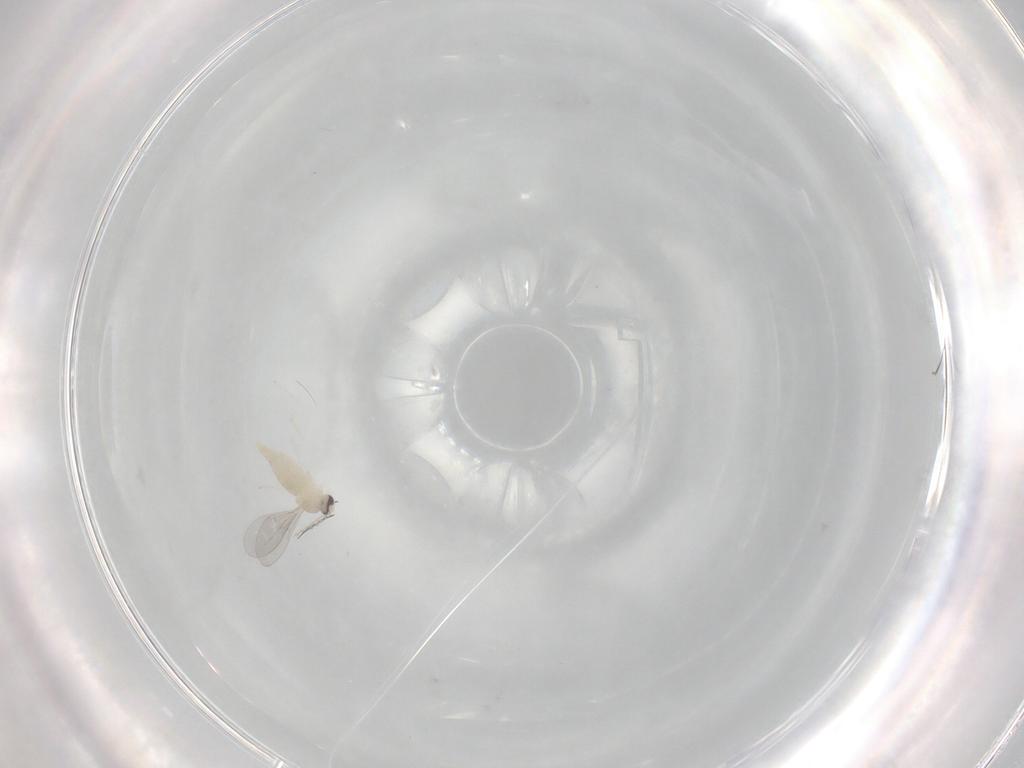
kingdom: Animalia
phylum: Arthropoda
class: Insecta
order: Diptera
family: Cecidomyiidae
